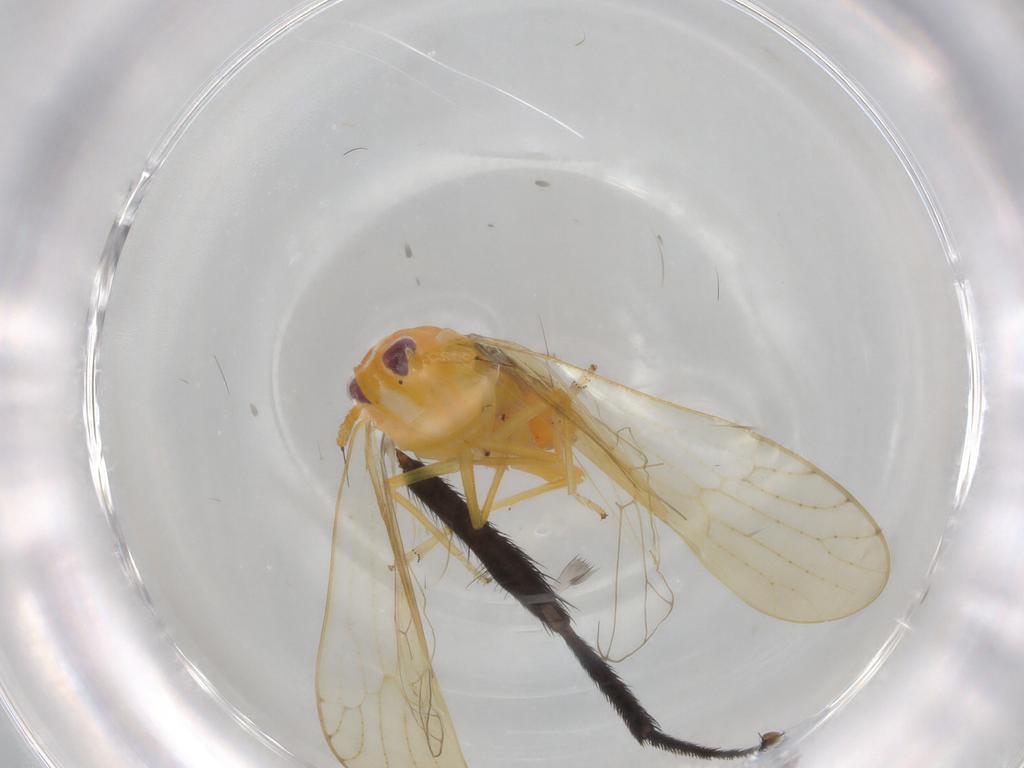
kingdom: Animalia
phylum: Arthropoda
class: Insecta
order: Hemiptera
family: Delphacidae
